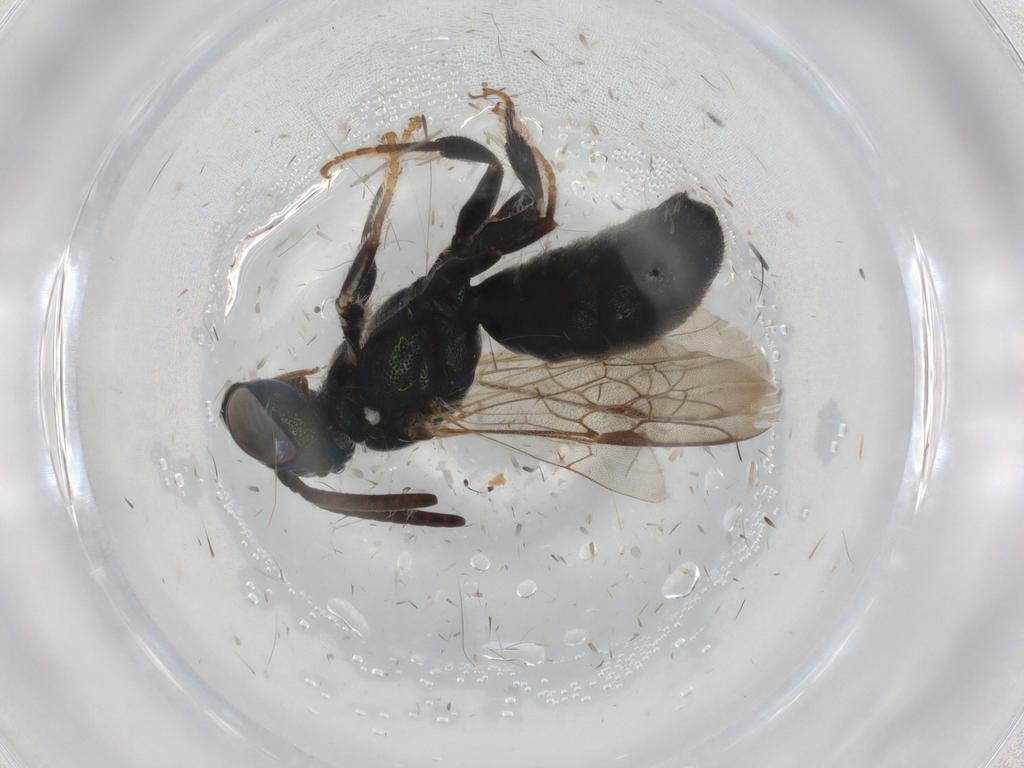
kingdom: Animalia
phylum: Arthropoda
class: Insecta
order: Hymenoptera
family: Apidae
